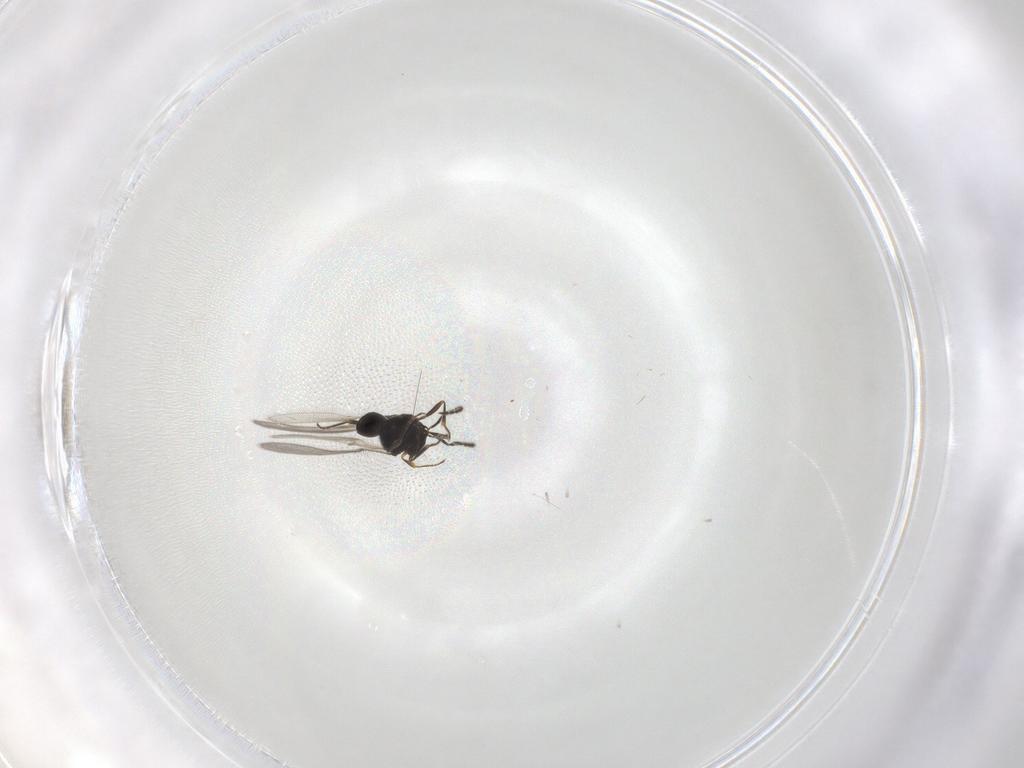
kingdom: Animalia
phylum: Arthropoda
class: Insecta
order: Hymenoptera
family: Scelionidae
